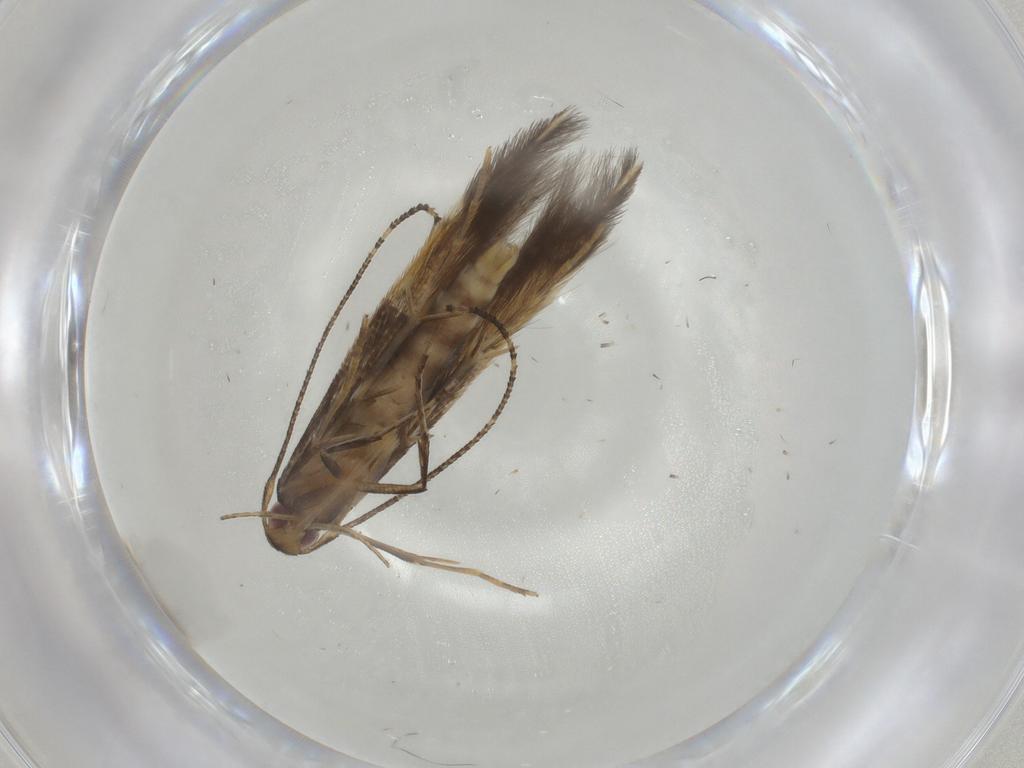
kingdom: Animalia
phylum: Arthropoda
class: Insecta
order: Lepidoptera
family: Cosmopterigidae
